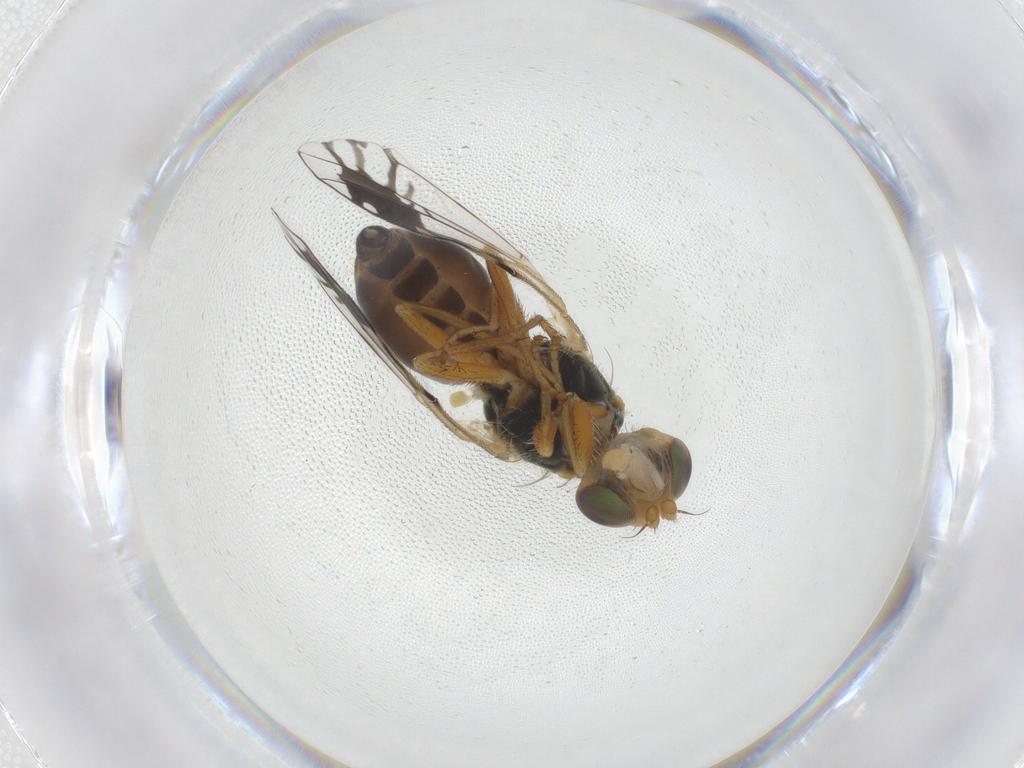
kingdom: Animalia
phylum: Arthropoda
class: Insecta
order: Diptera
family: Tephritidae
